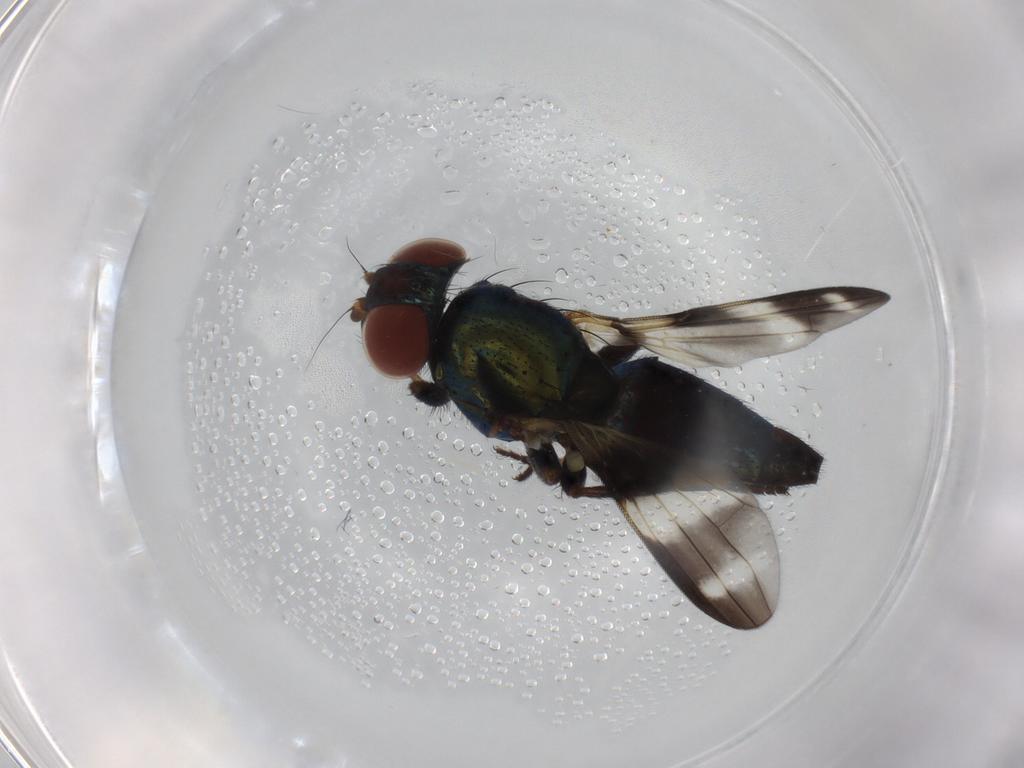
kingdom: Animalia
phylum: Arthropoda
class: Insecta
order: Diptera
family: Ulidiidae
